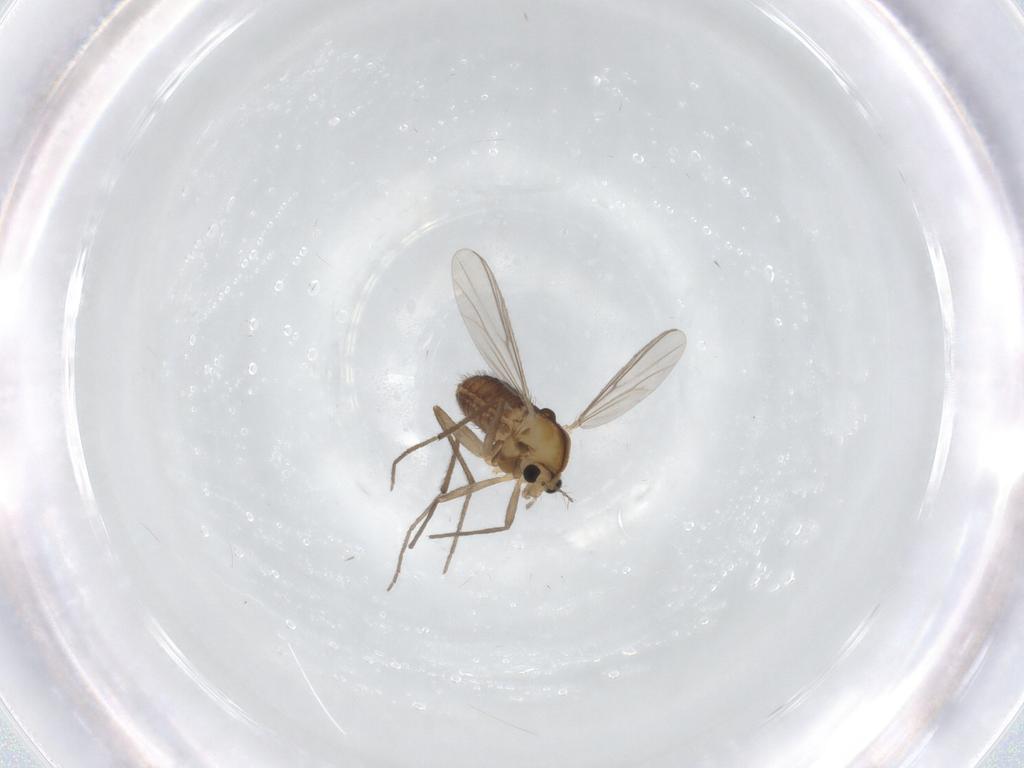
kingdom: Animalia
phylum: Arthropoda
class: Insecta
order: Diptera
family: Chironomidae
